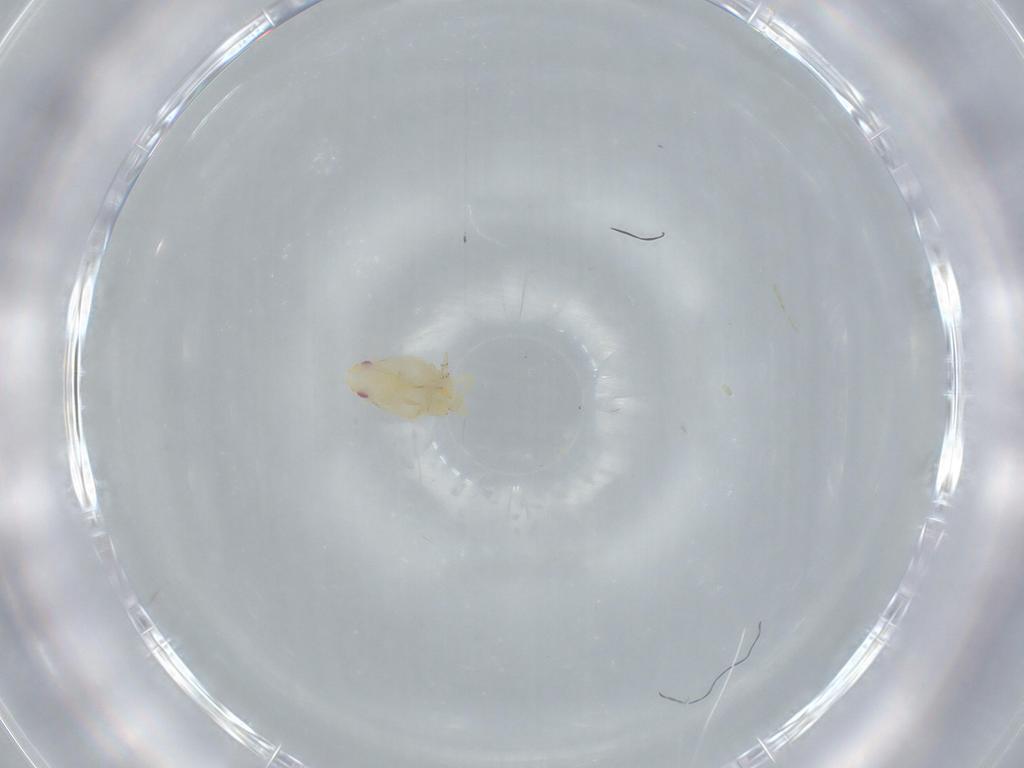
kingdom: Animalia
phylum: Arthropoda
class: Insecta
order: Hemiptera
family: Flatidae
